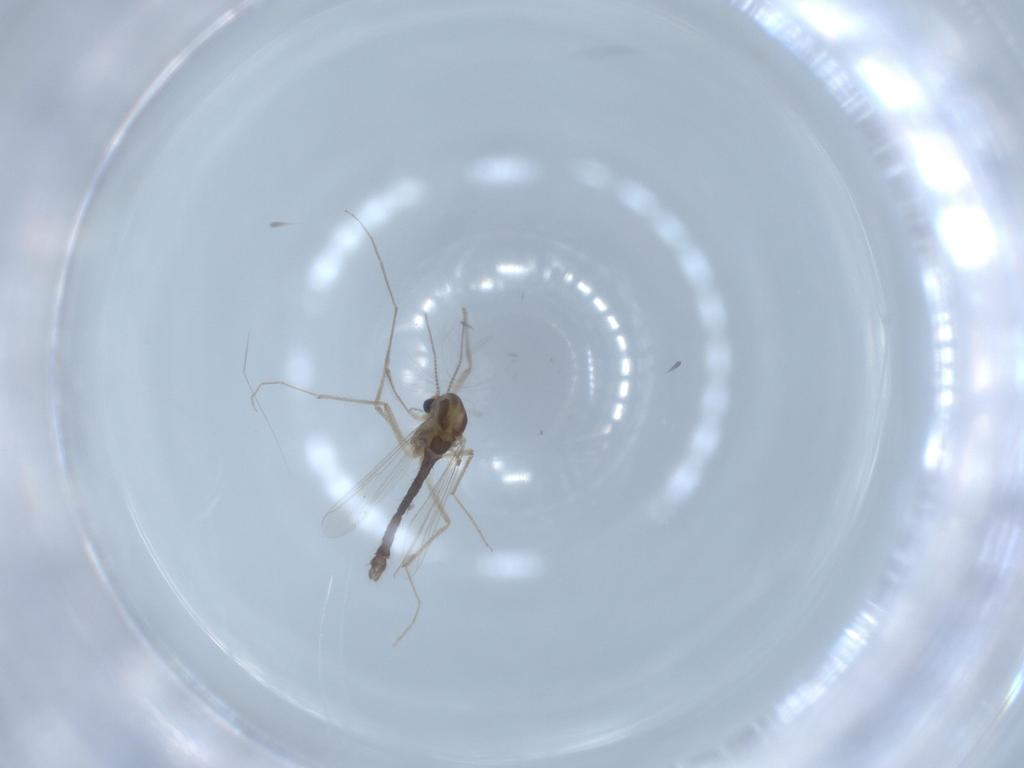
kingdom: Animalia
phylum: Arthropoda
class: Insecta
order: Diptera
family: Chironomidae
